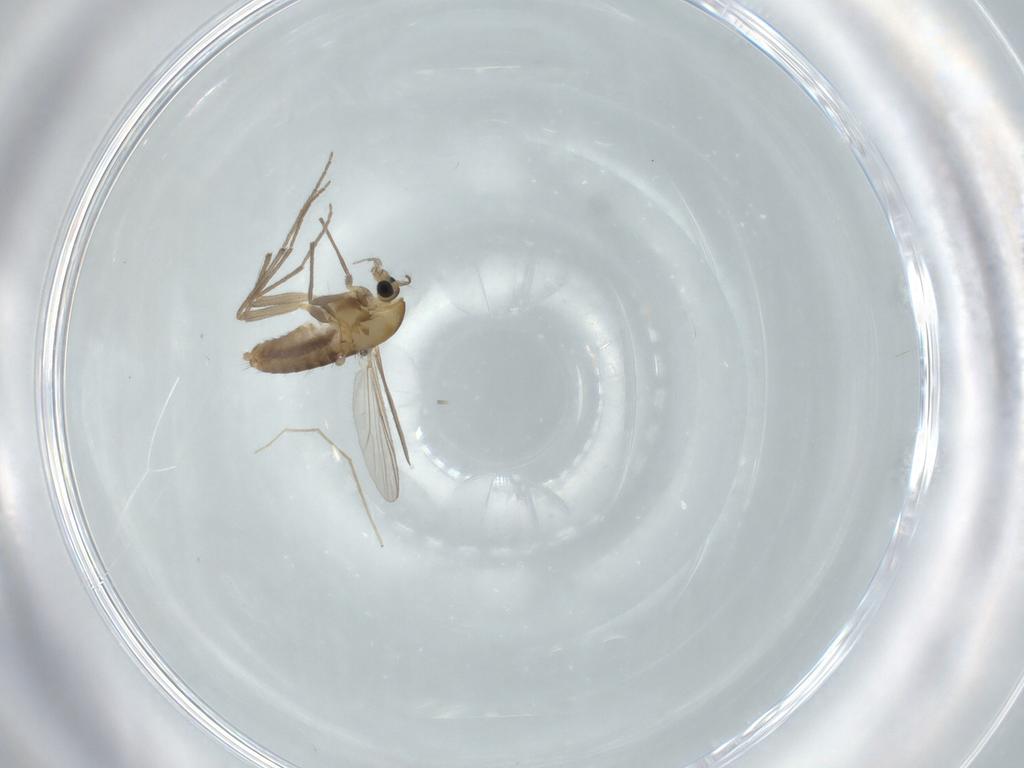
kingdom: Animalia
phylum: Arthropoda
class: Insecta
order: Diptera
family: Chironomidae
